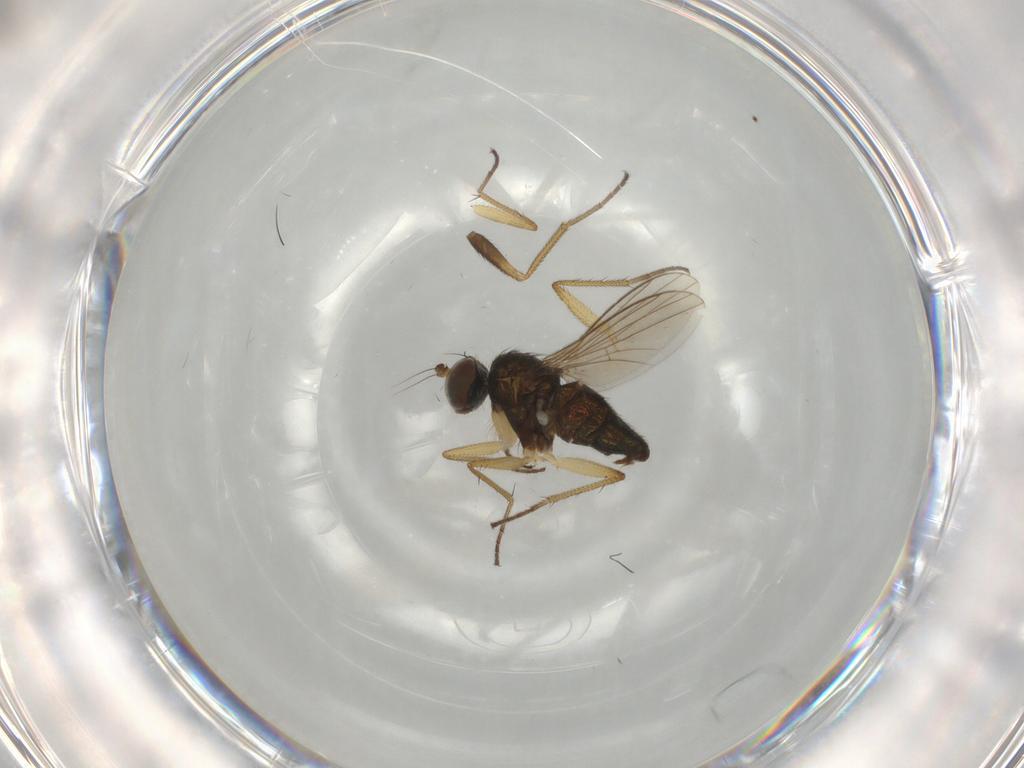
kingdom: Animalia
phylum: Arthropoda
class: Insecta
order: Diptera
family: Dolichopodidae
